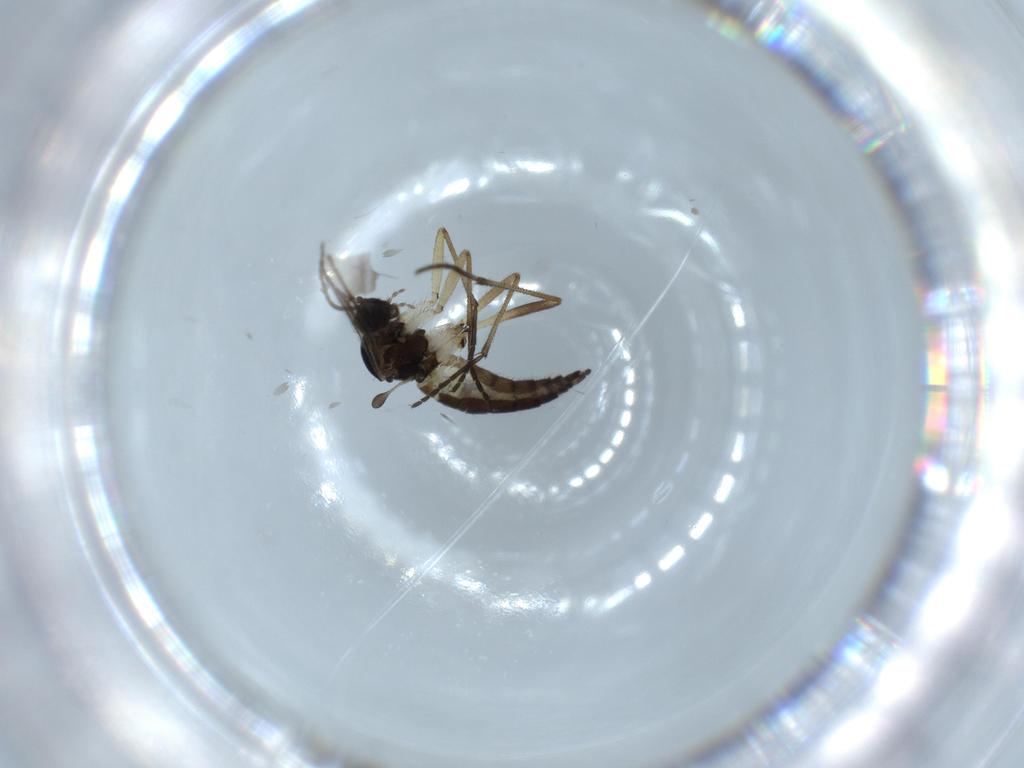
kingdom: Animalia
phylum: Arthropoda
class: Insecta
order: Diptera
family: Sciaridae
